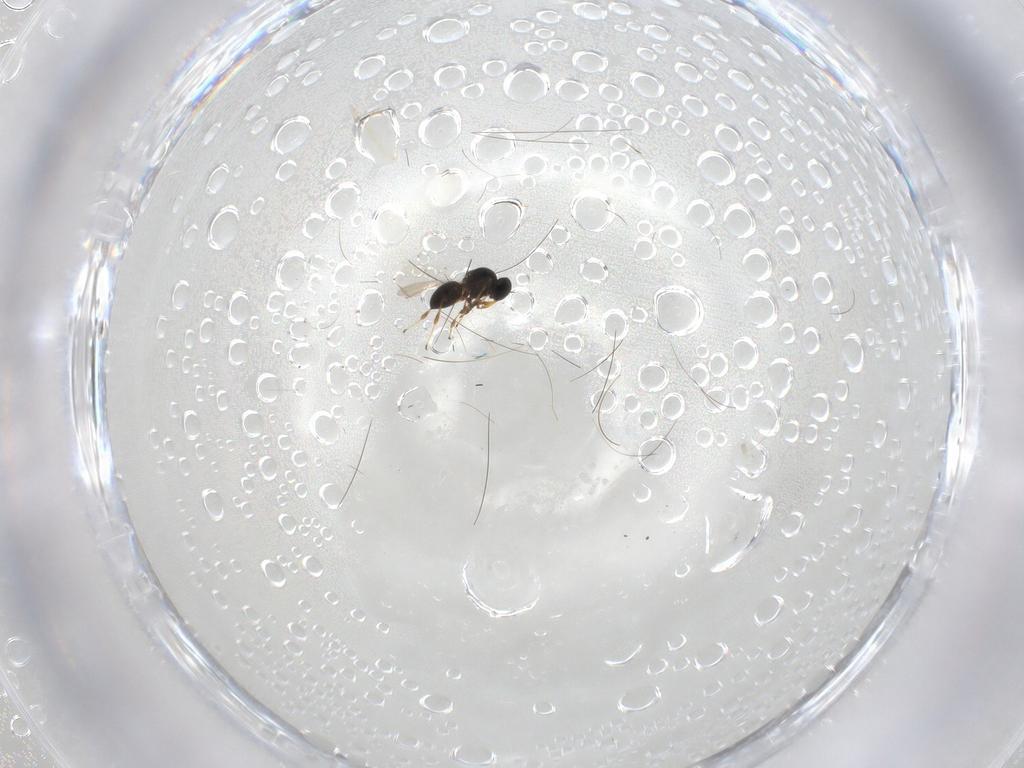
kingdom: Animalia
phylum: Arthropoda
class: Insecta
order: Hymenoptera
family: Platygastridae
